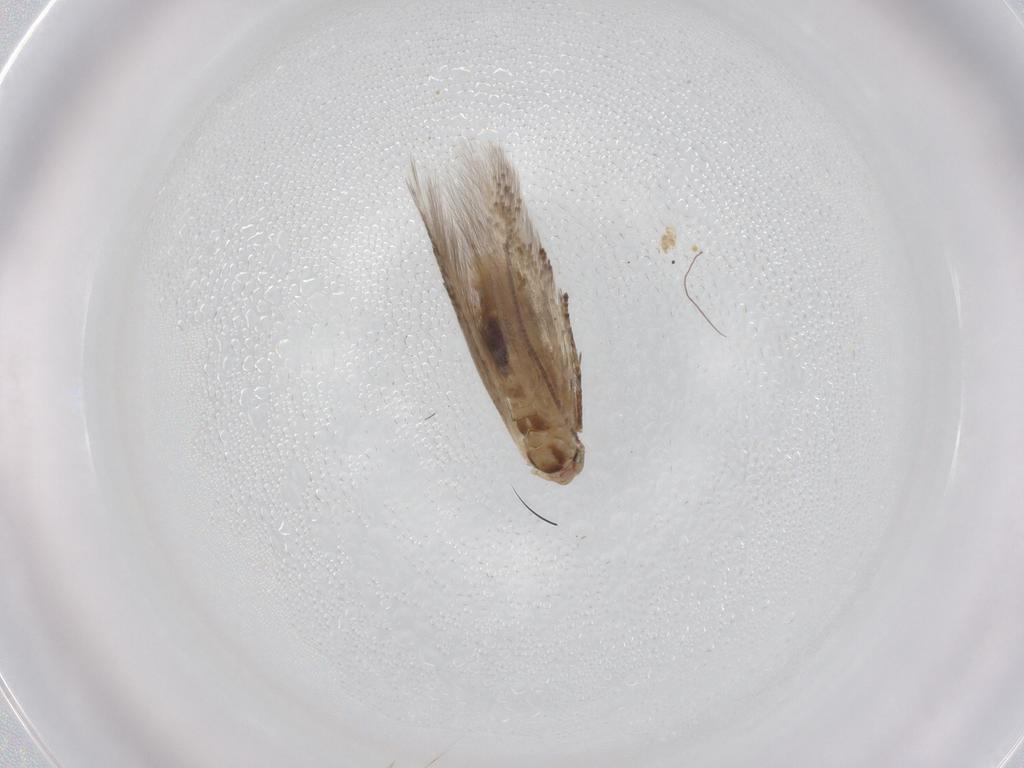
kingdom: Animalia
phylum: Arthropoda
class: Insecta
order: Lepidoptera
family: Bucculatricidae
